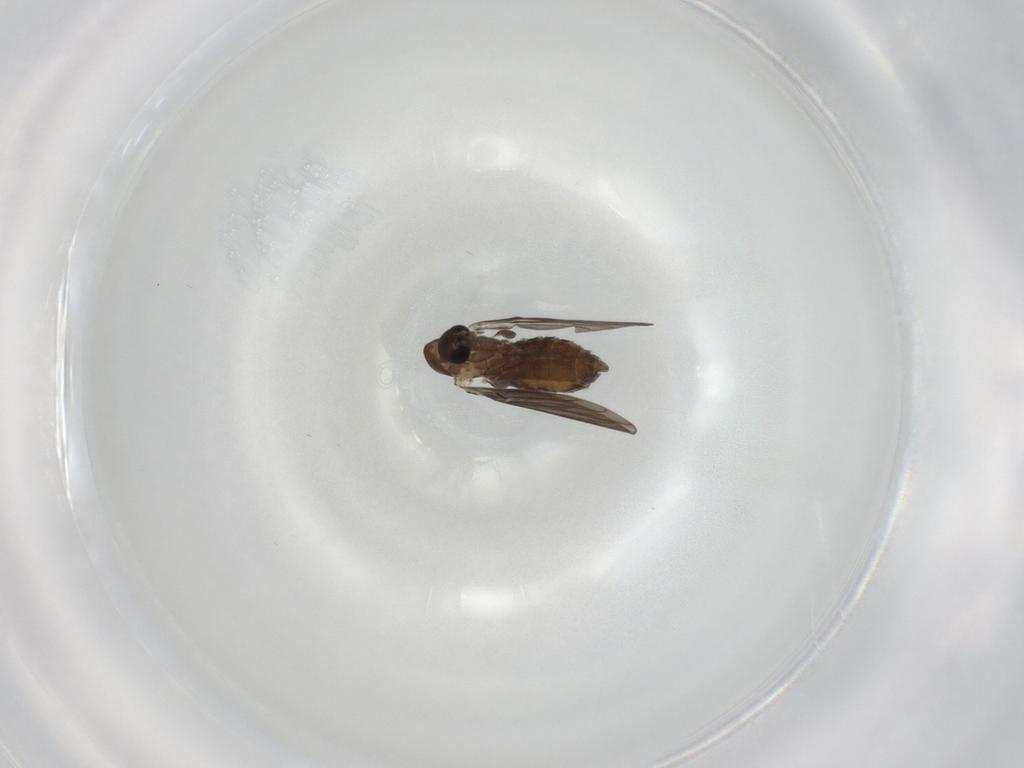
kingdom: Animalia
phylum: Arthropoda
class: Insecta
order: Diptera
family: Psychodidae
